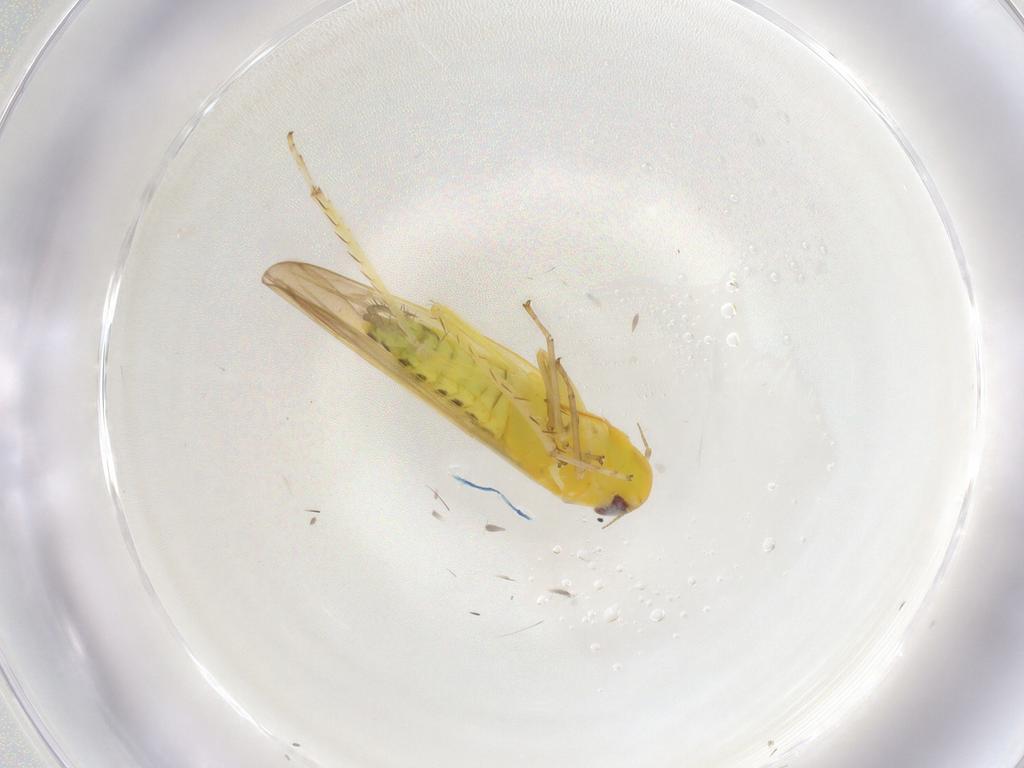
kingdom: Animalia
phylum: Arthropoda
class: Insecta
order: Hemiptera
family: Cicadellidae
